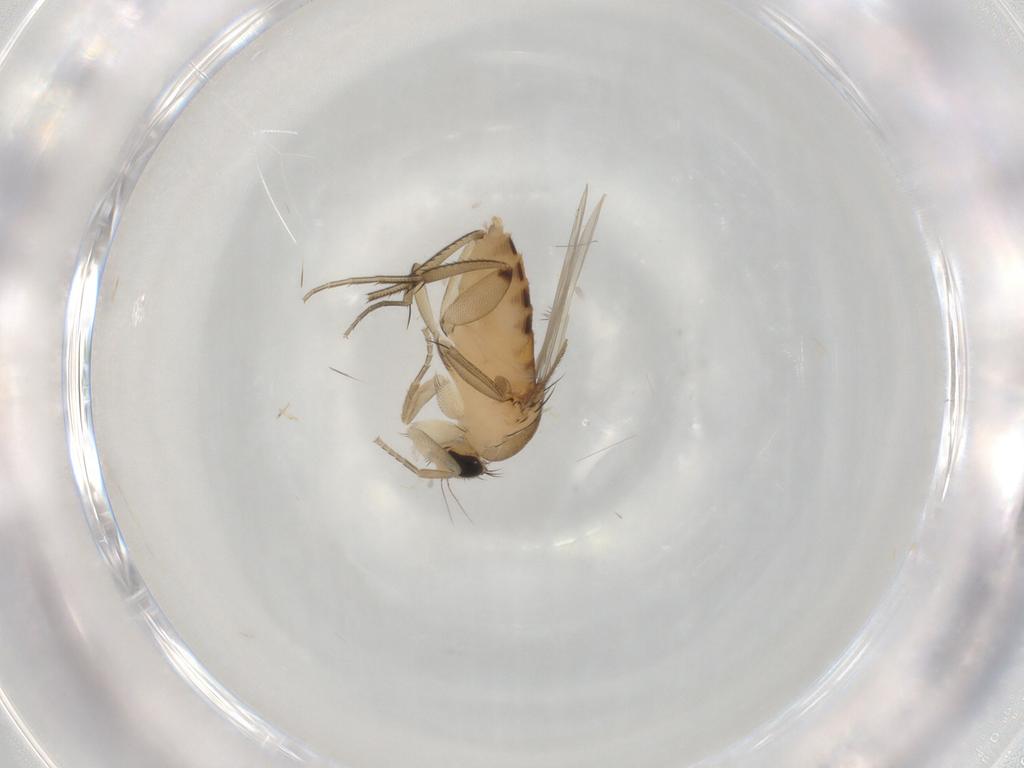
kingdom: Animalia
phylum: Arthropoda
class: Insecta
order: Diptera
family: Phoridae
